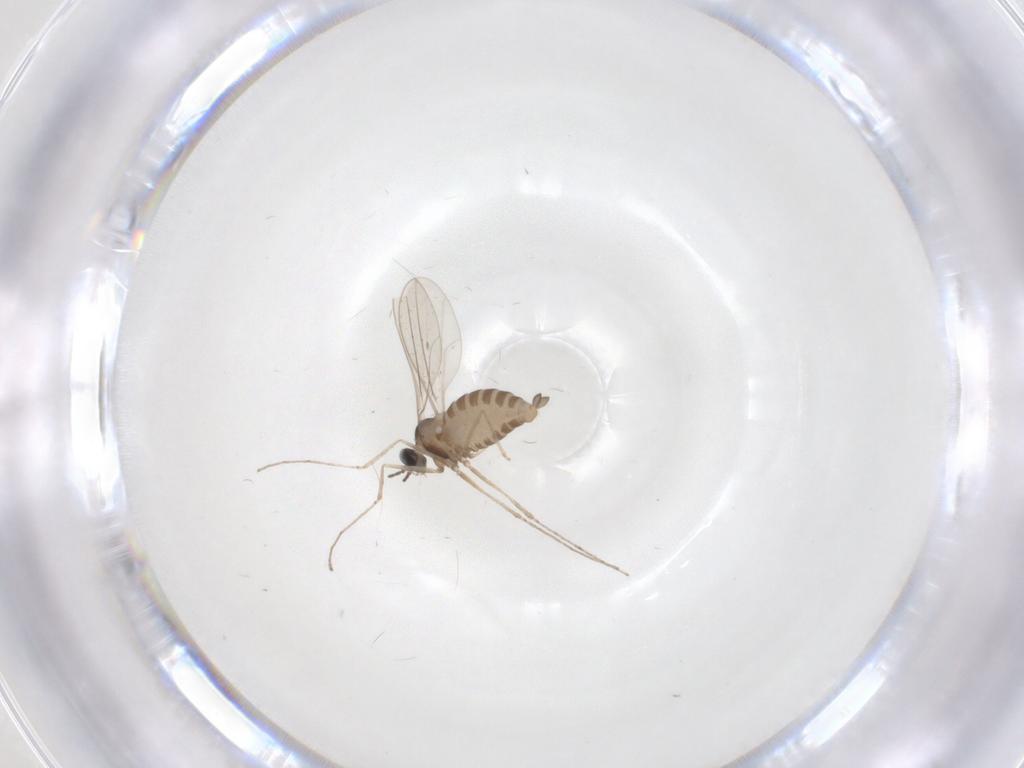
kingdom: Animalia
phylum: Arthropoda
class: Insecta
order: Diptera
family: Cecidomyiidae
